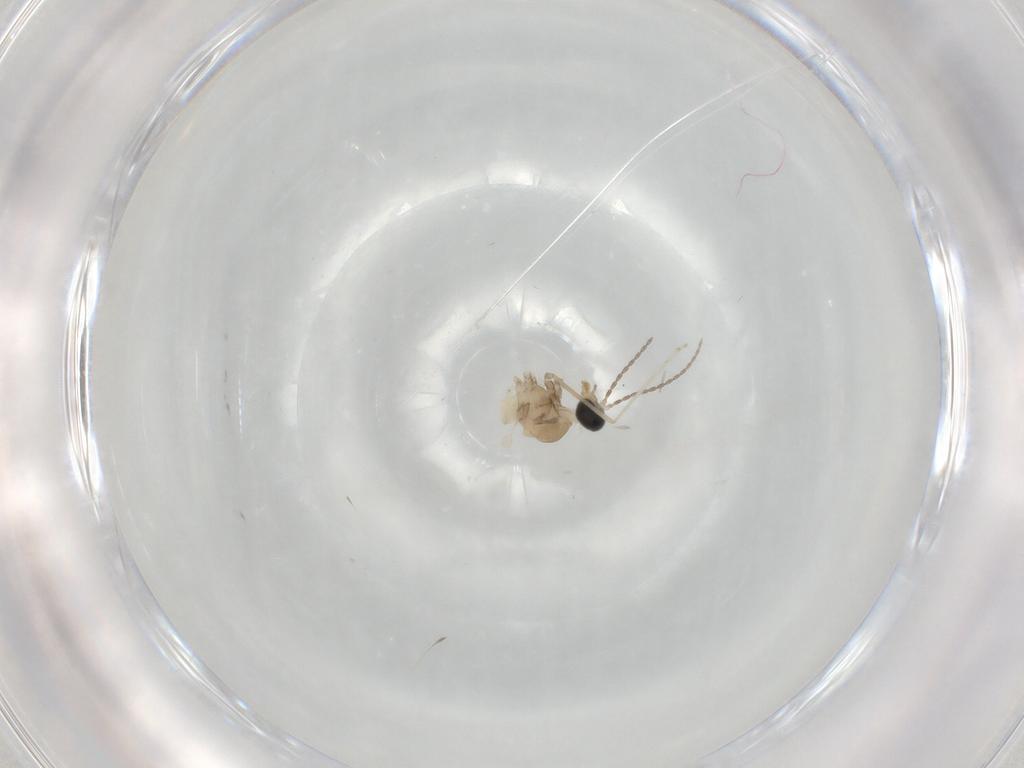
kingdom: Animalia
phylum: Arthropoda
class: Insecta
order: Diptera
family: Cecidomyiidae
